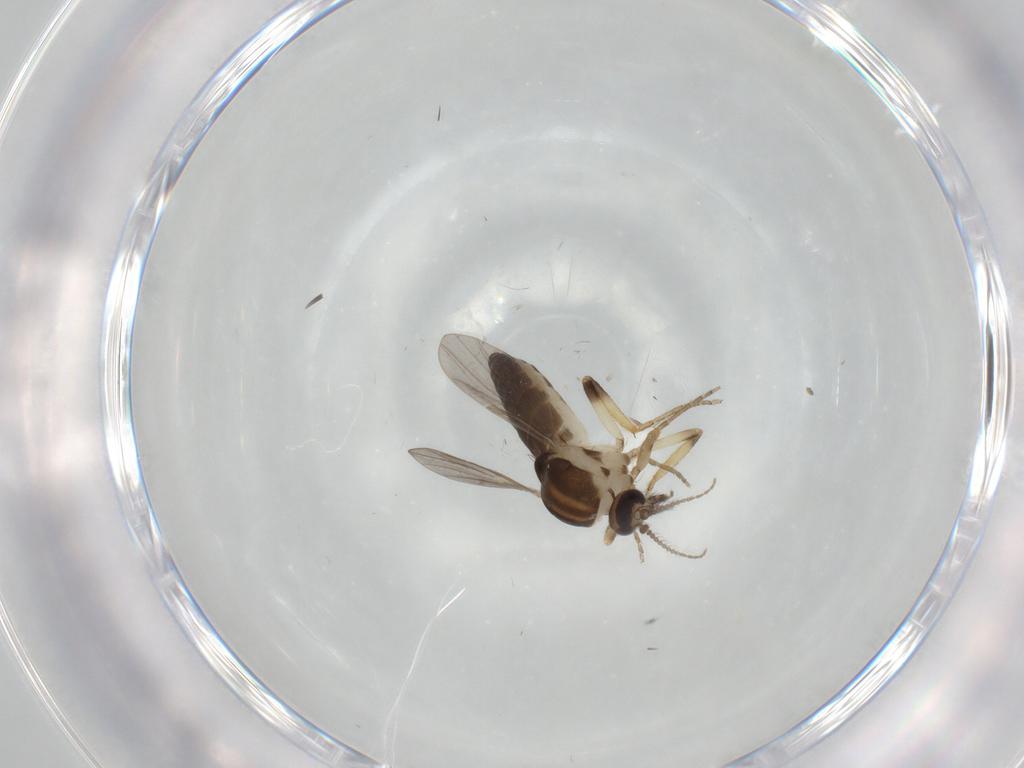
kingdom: Animalia
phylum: Arthropoda
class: Insecta
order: Diptera
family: Ceratopogonidae
